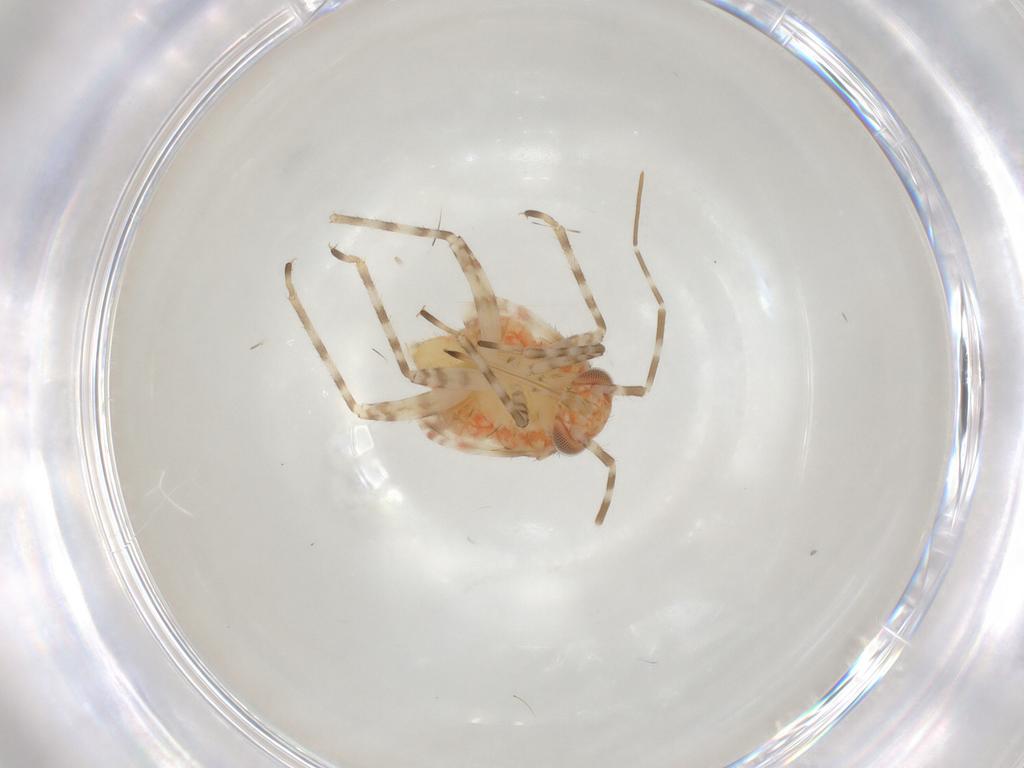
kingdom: Animalia
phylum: Arthropoda
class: Insecta
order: Hemiptera
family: Miridae
